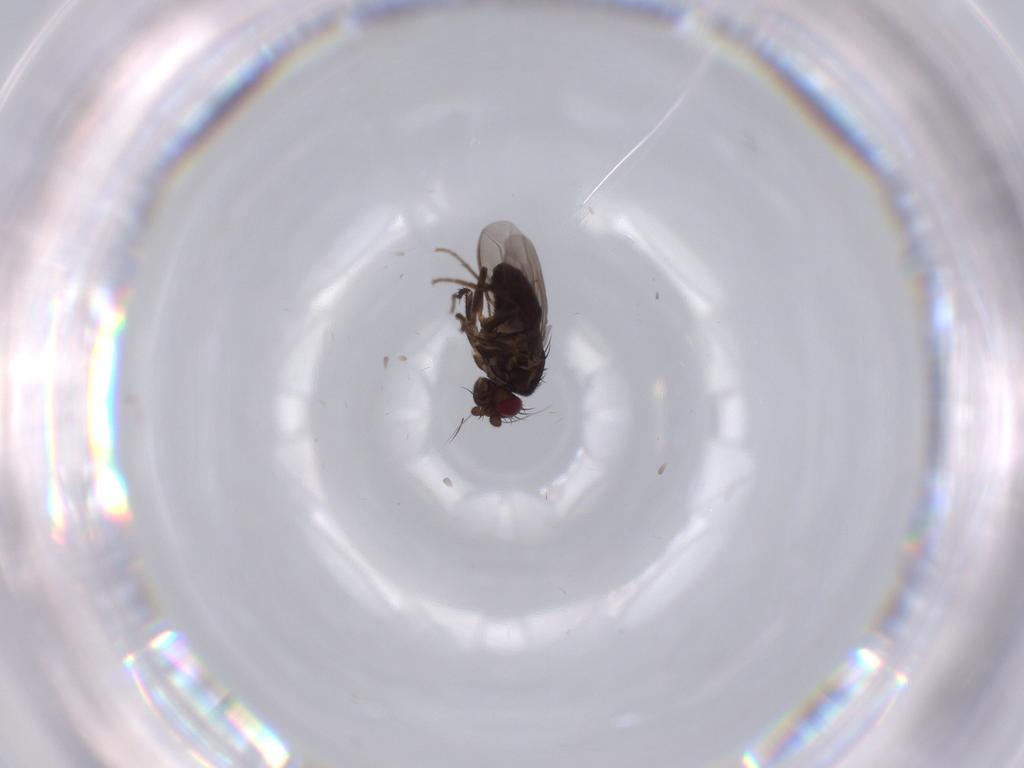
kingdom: Animalia
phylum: Arthropoda
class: Insecta
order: Diptera
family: Sphaeroceridae
